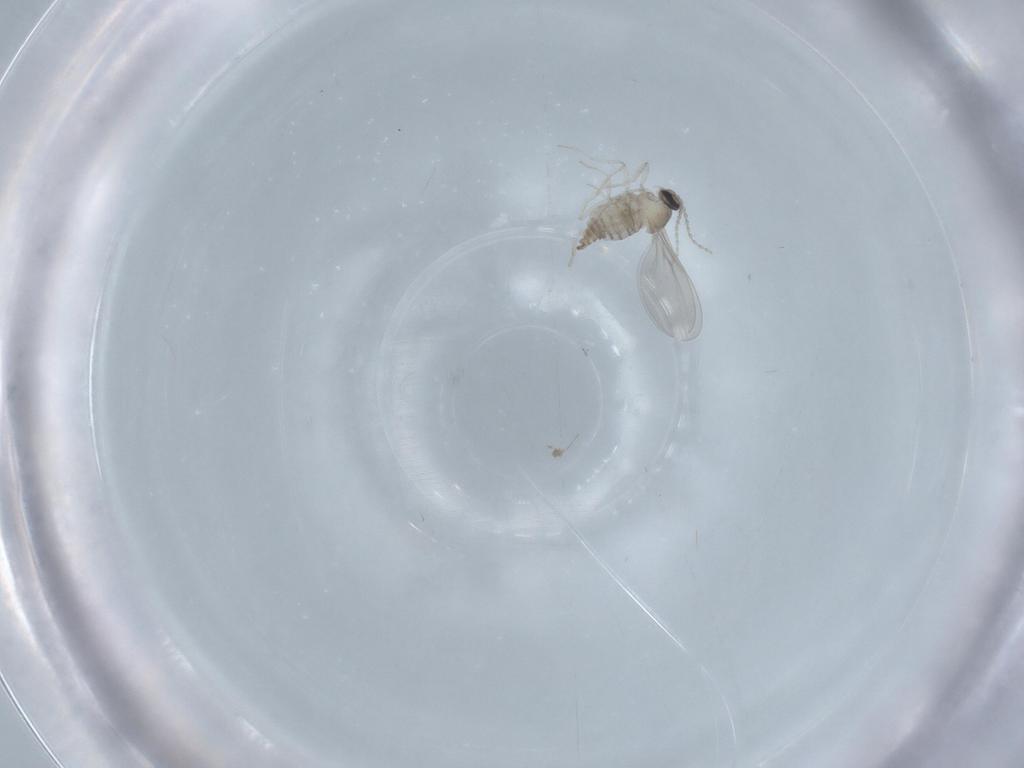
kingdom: Animalia
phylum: Arthropoda
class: Insecta
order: Diptera
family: Cecidomyiidae
